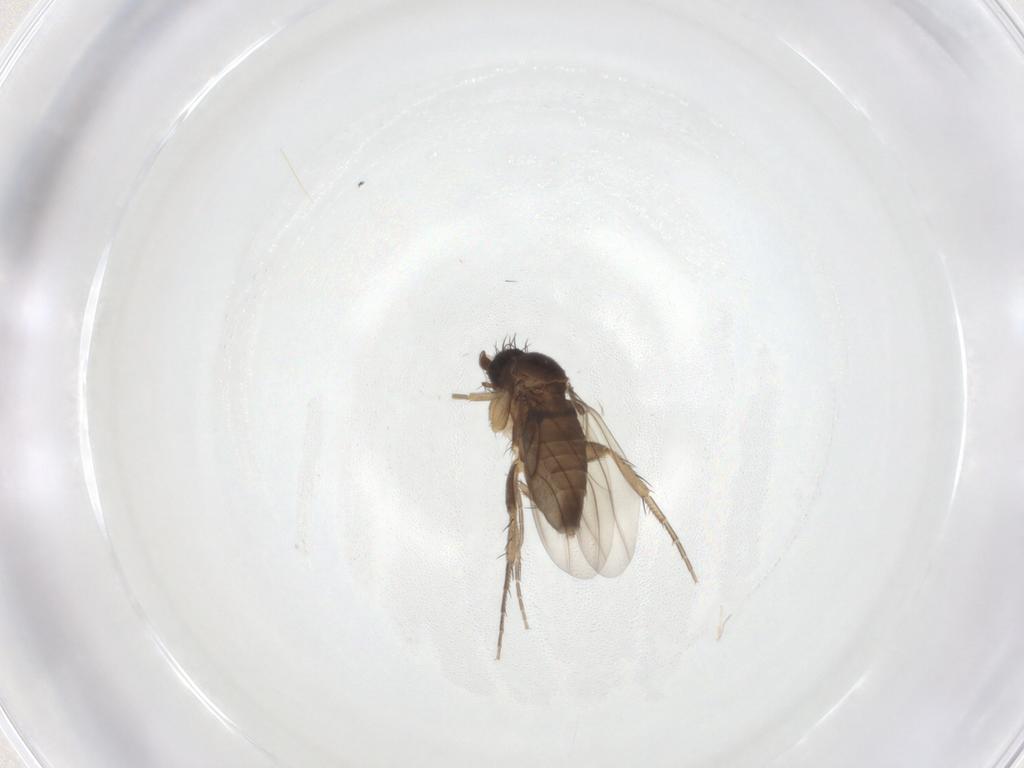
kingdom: Animalia
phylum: Arthropoda
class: Insecta
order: Diptera
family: Phoridae
